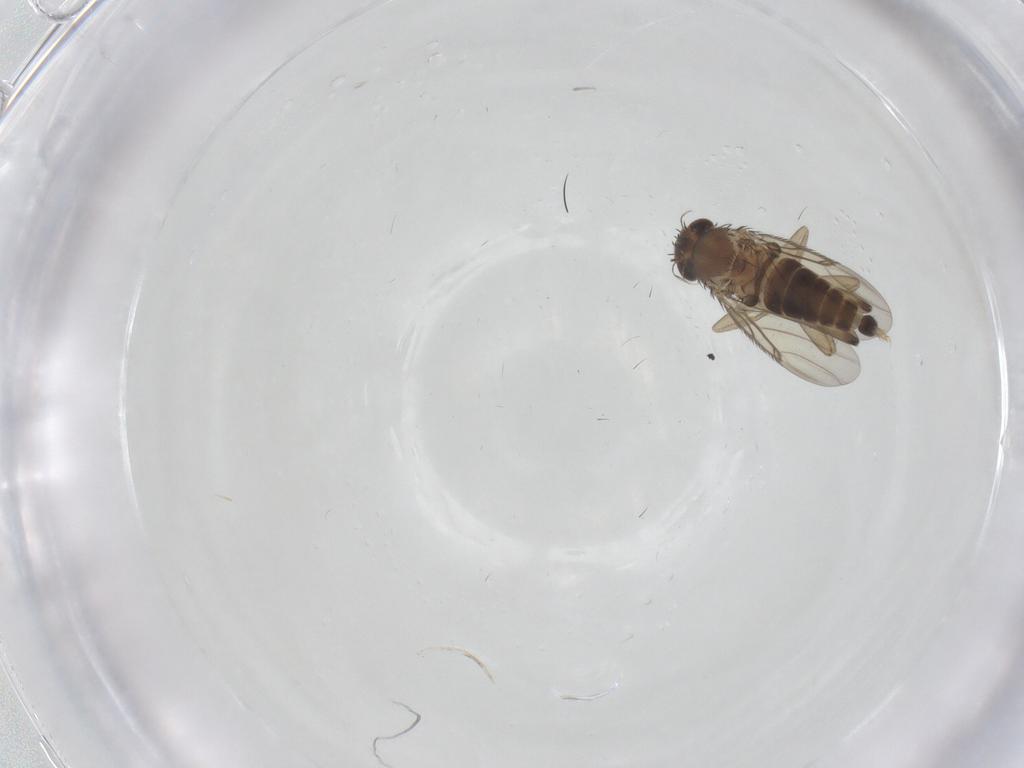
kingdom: Animalia
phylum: Arthropoda
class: Insecta
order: Diptera
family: Phoridae
